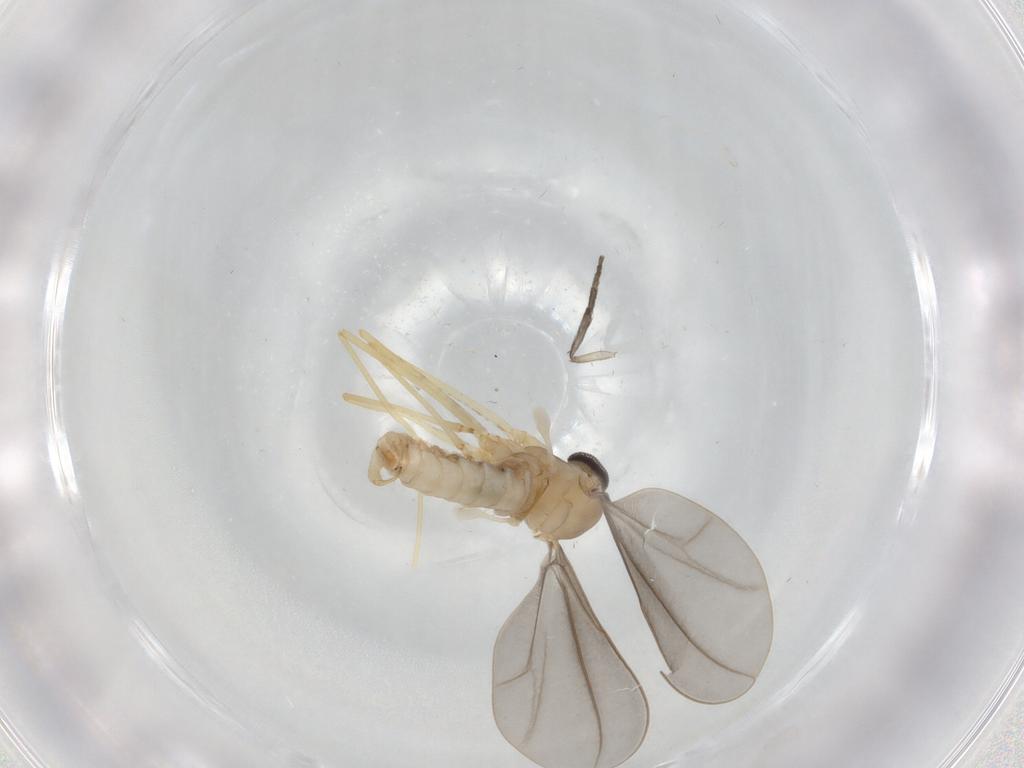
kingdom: Animalia
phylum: Arthropoda
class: Insecta
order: Diptera
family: Cecidomyiidae
